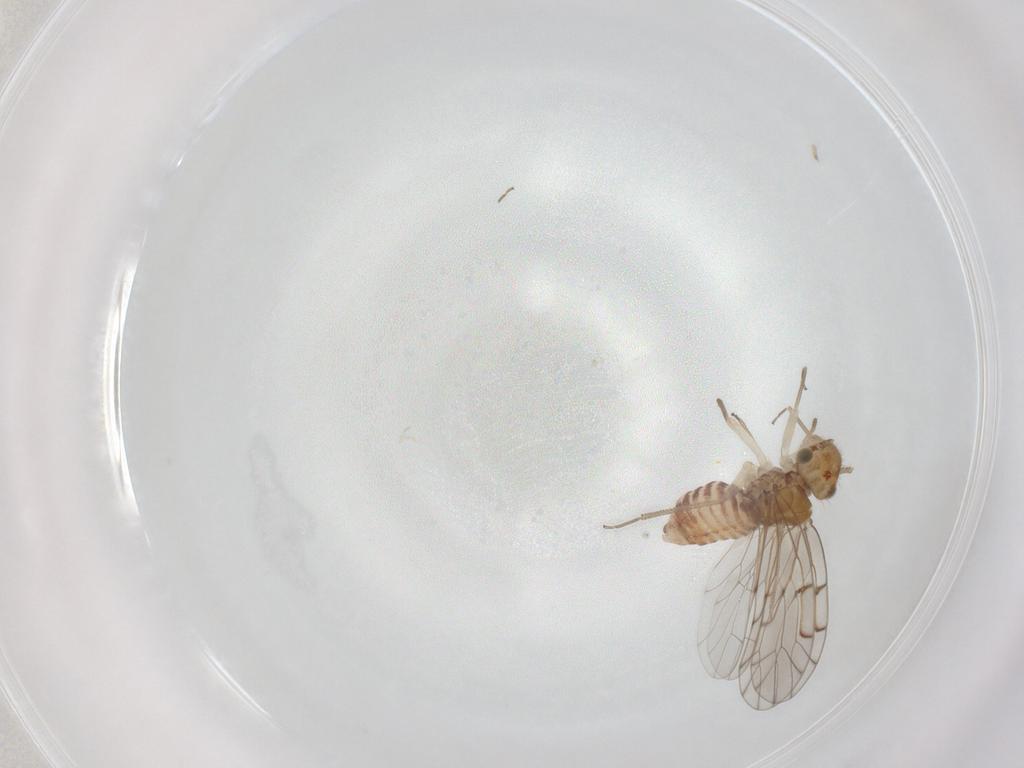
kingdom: Animalia
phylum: Arthropoda
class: Insecta
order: Psocodea
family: Ectopsocidae
